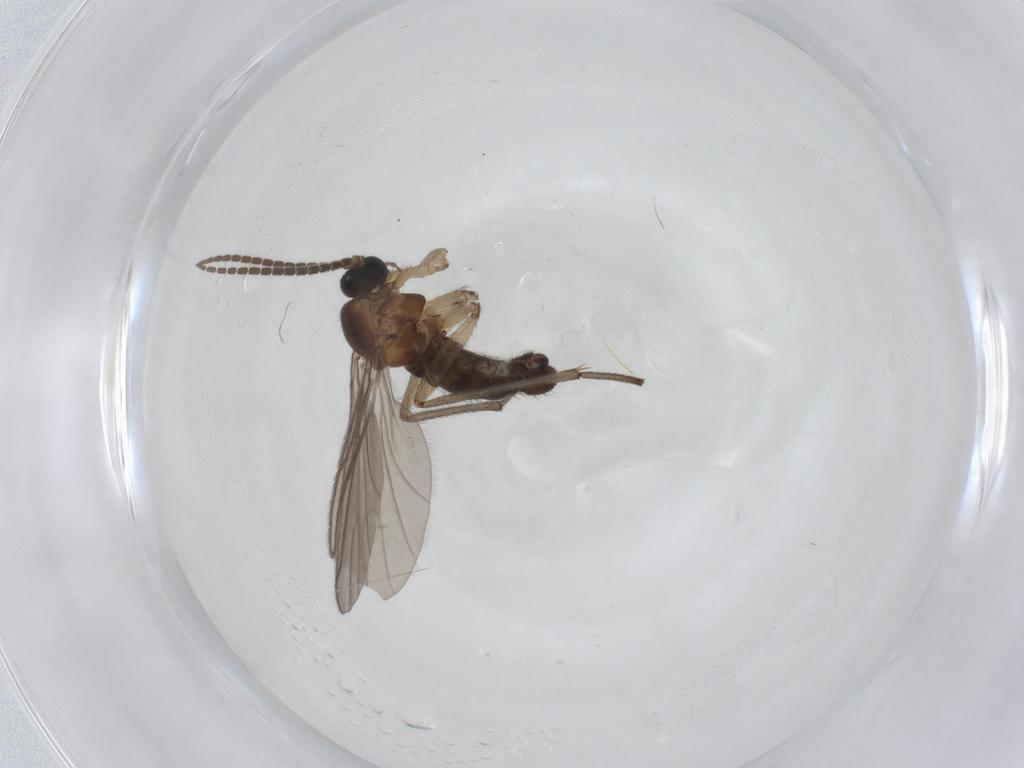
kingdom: Animalia
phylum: Arthropoda
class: Insecta
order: Diptera
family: Sciaridae
